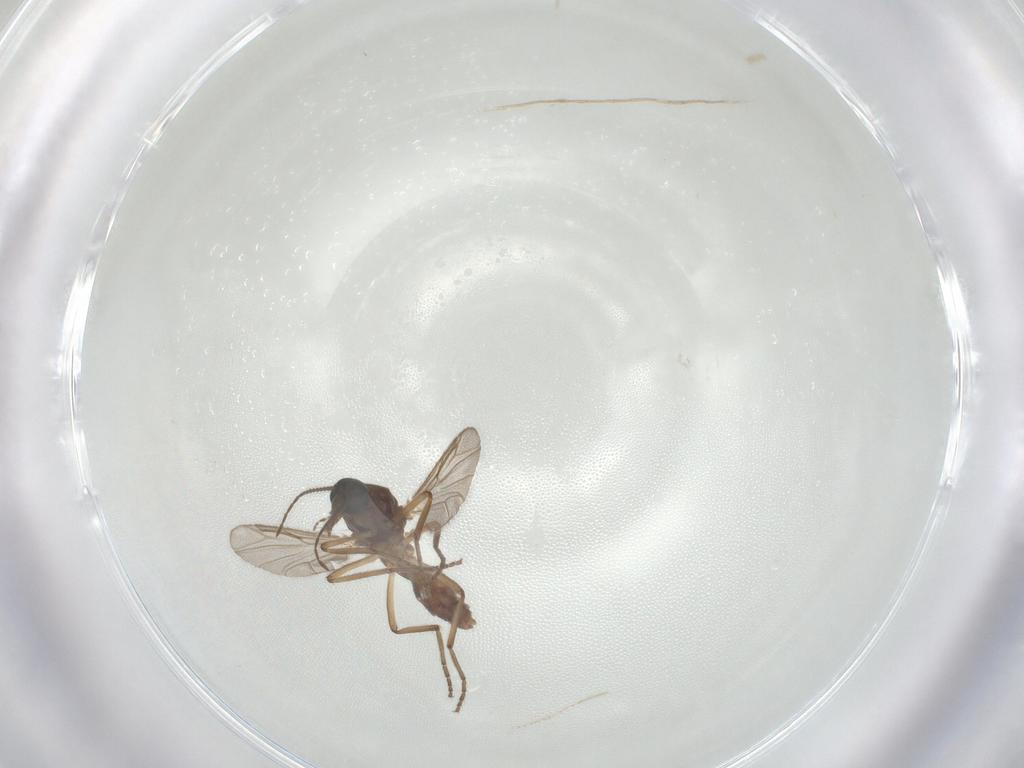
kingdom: Animalia
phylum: Arthropoda
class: Insecta
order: Diptera
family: Ceratopogonidae
